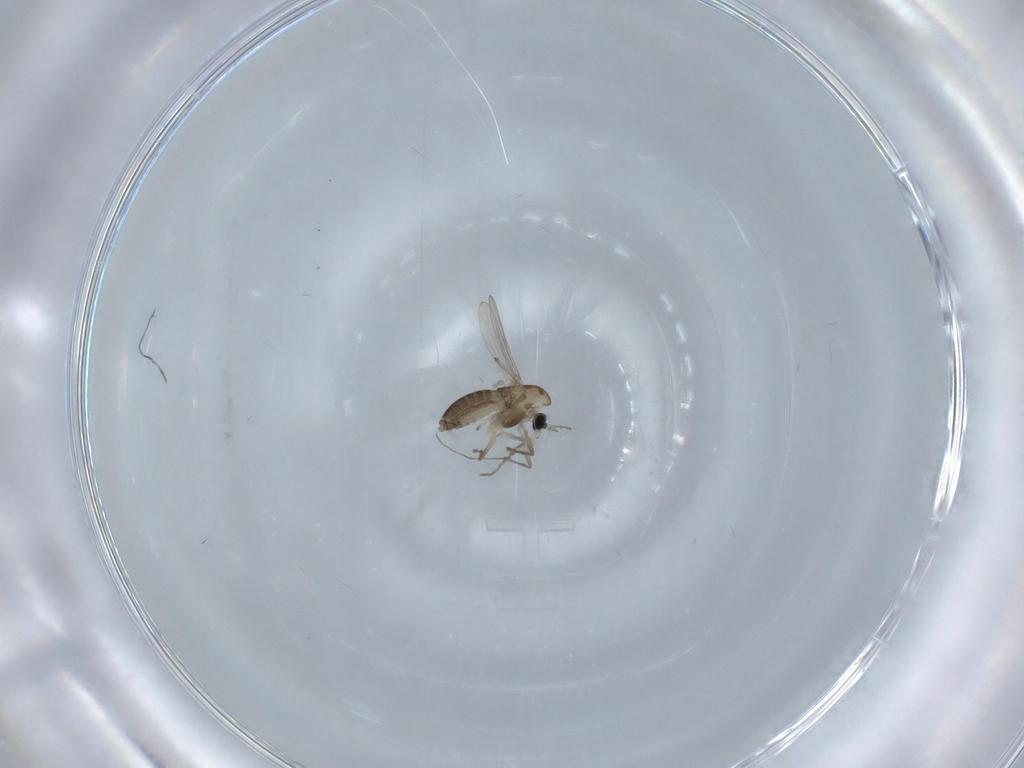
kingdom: Animalia
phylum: Arthropoda
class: Insecta
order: Diptera
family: Chironomidae
